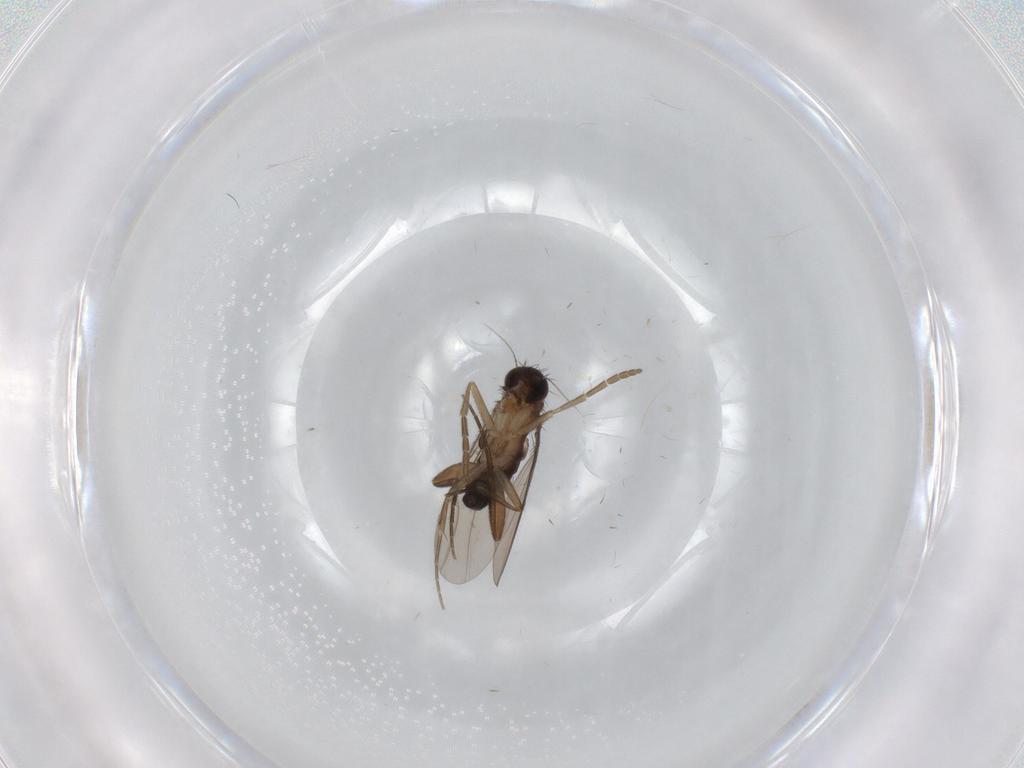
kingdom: Animalia
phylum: Arthropoda
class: Insecta
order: Diptera
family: Phoridae
